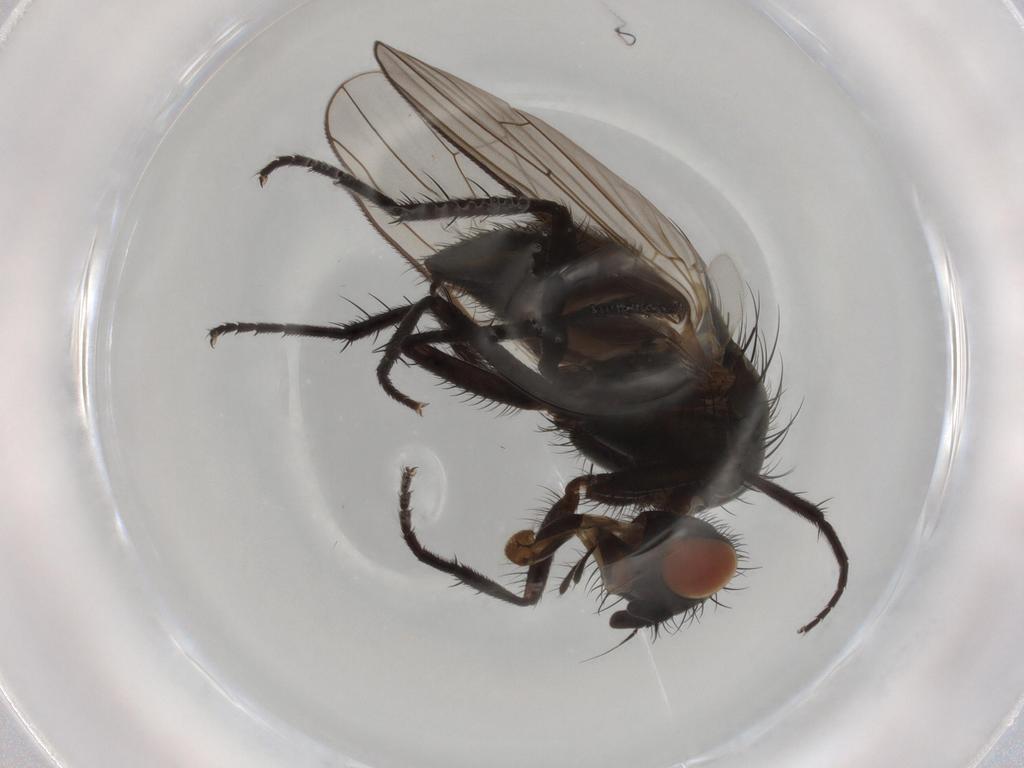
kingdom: Animalia
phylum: Arthropoda
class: Insecta
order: Diptera
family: Anthomyiidae
